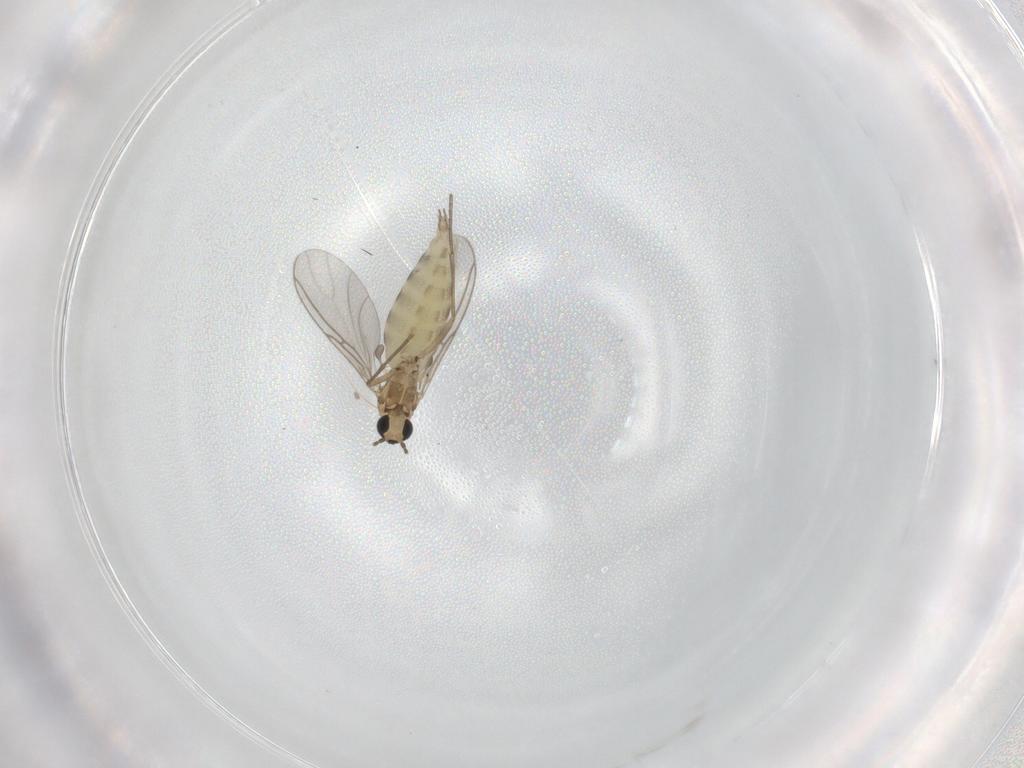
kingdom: Animalia
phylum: Arthropoda
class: Insecta
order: Diptera
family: Sciaridae
